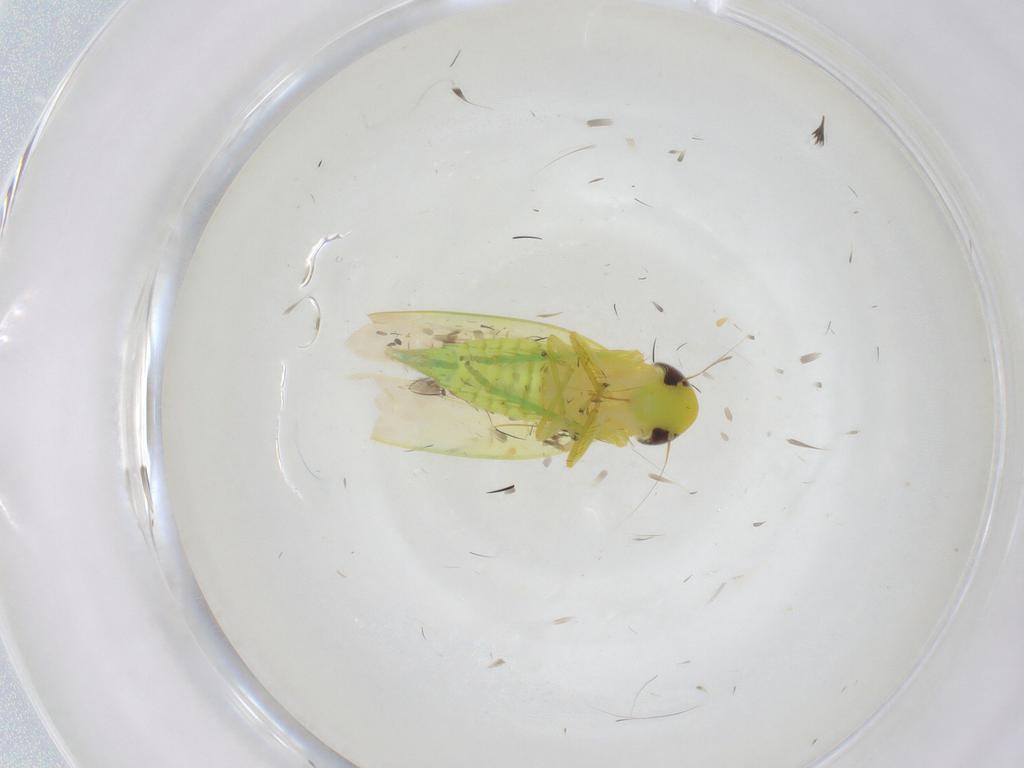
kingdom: Animalia
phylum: Arthropoda
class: Insecta
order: Hemiptera
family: Cicadellidae
